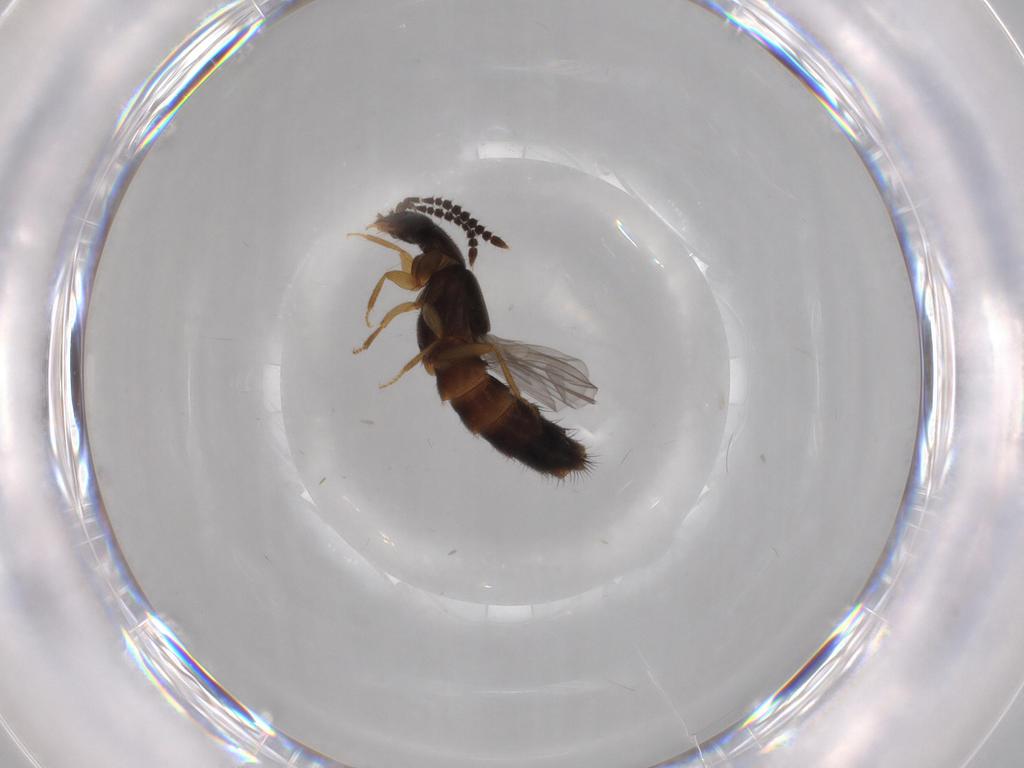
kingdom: Animalia
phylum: Arthropoda
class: Insecta
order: Coleoptera
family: Staphylinidae
